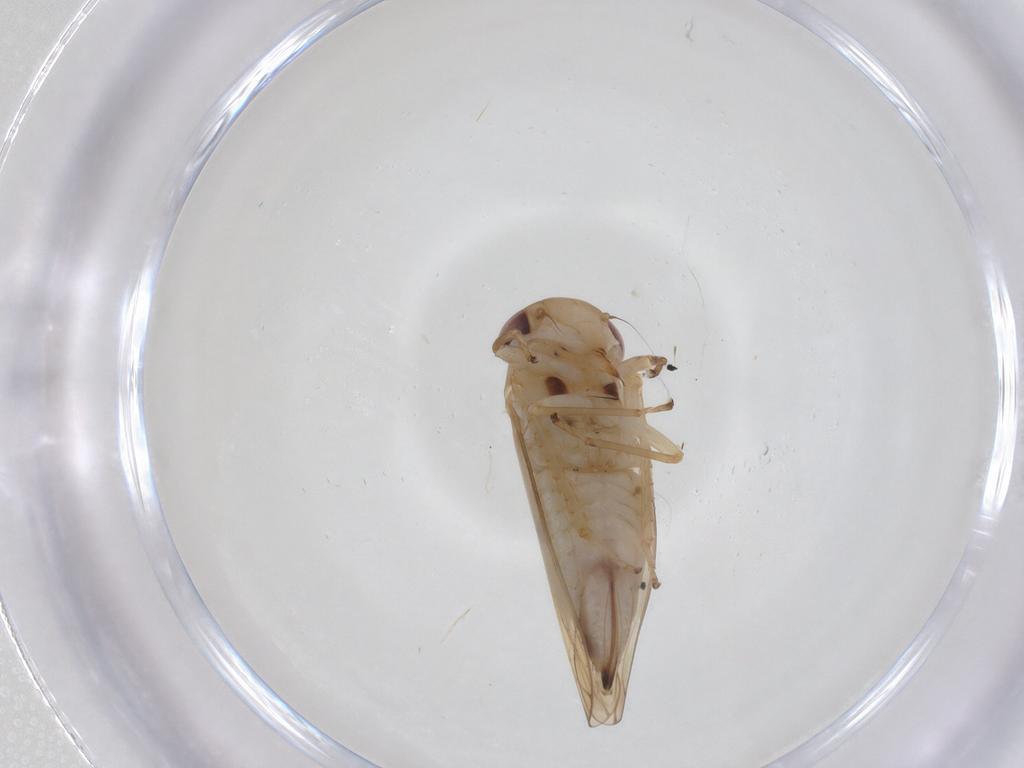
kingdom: Animalia
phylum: Arthropoda
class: Insecta
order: Hemiptera
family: Cicadellidae
